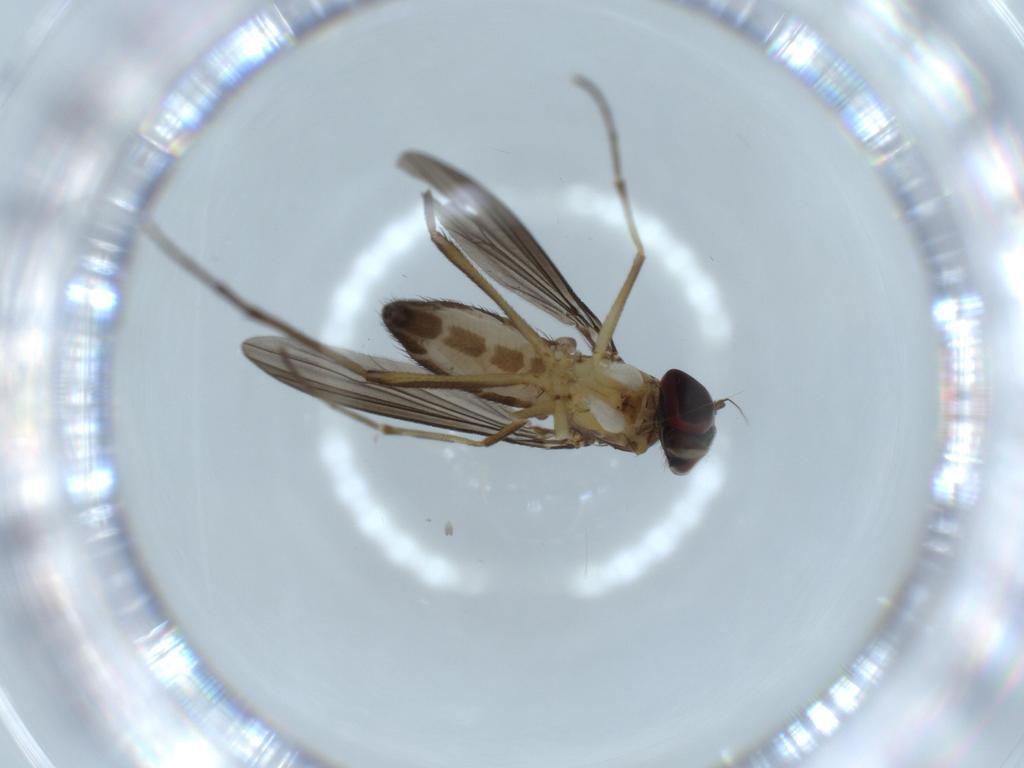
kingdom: Animalia
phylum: Arthropoda
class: Insecta
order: Diptera
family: Dolichopodidae
